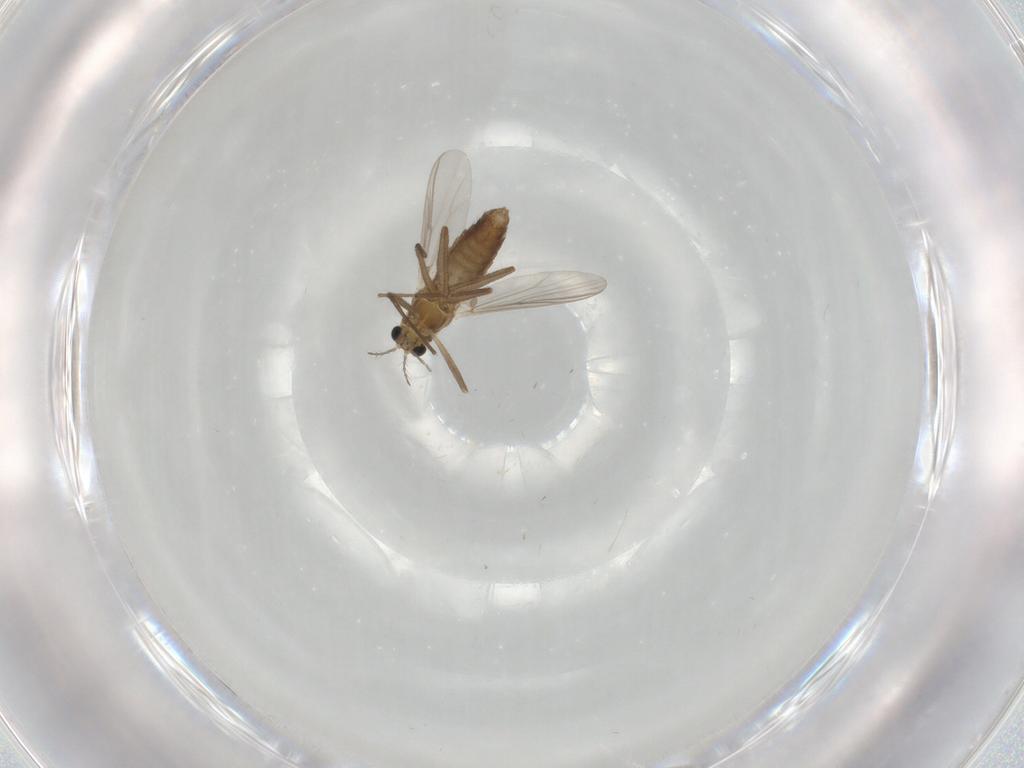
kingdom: Animalia
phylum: Arthropoda
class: Insecta
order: Diptera
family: Chironomidae
